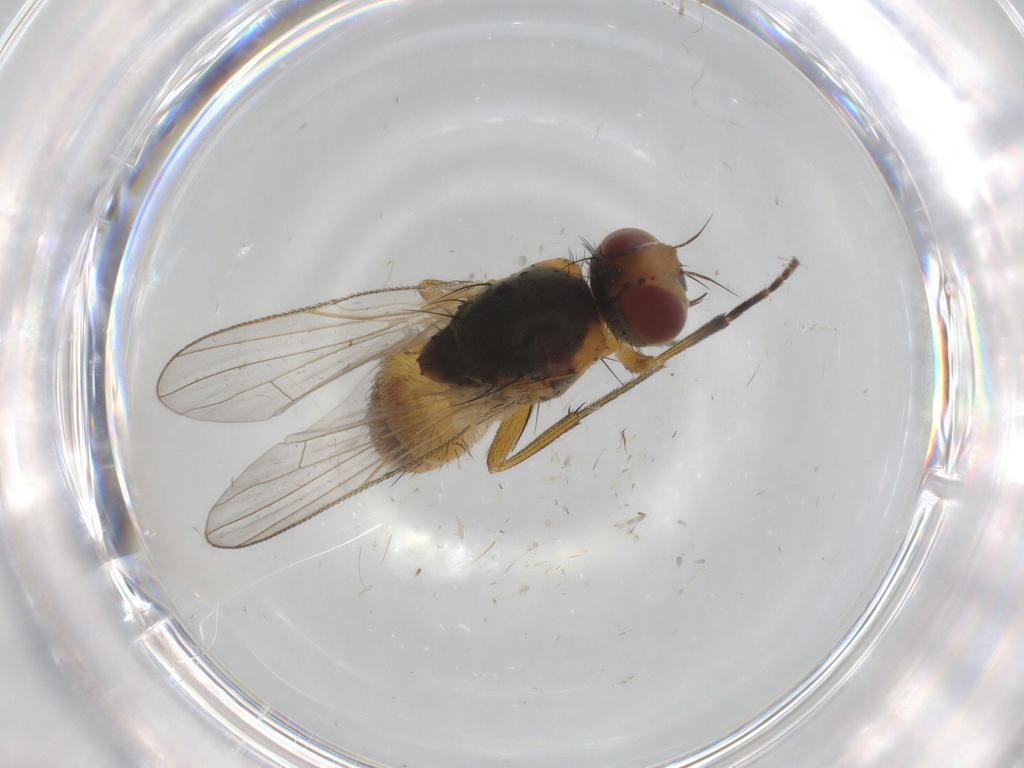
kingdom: Animalia
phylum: Arthropoda
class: Insecta
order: Diptera
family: Muscidae
